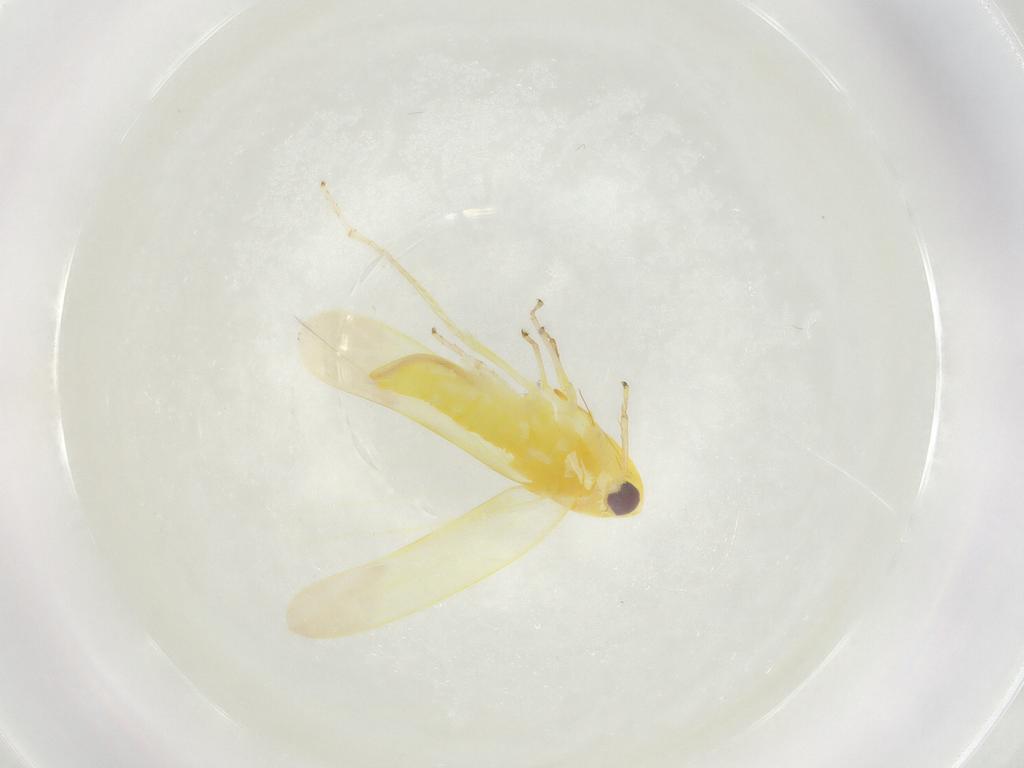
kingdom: Animalia
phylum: Arthropoda
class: Insecta
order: Hemiptera
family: Cicadellidae
